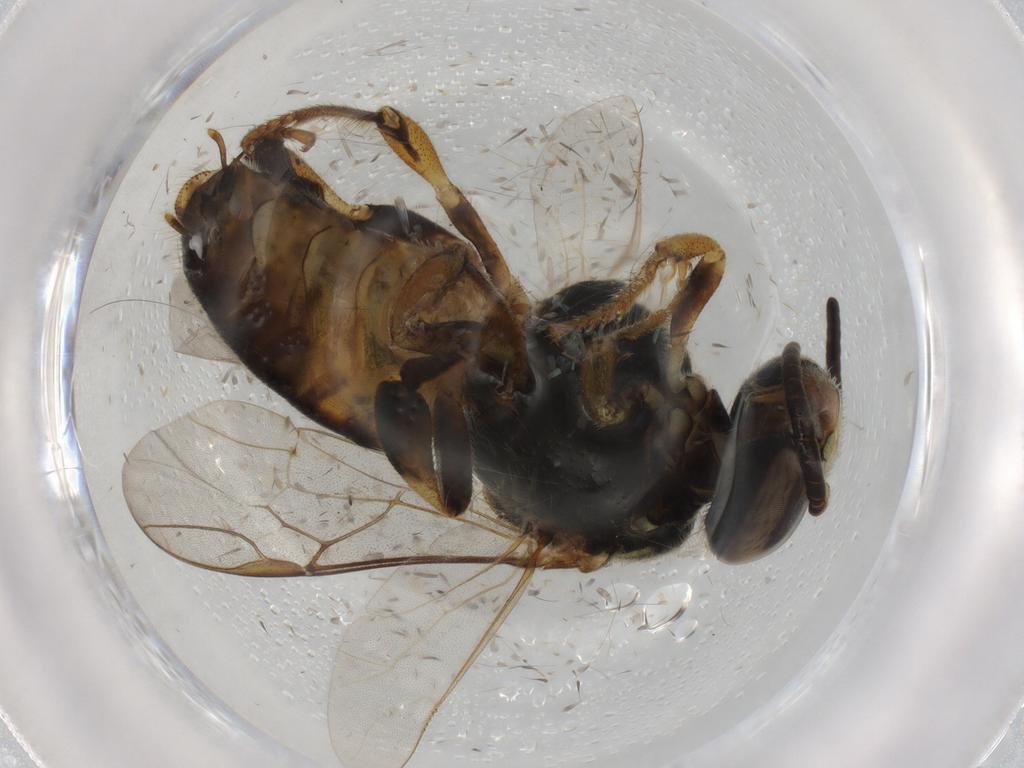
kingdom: Animalia
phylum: Arthropoda
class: Insecta
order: Hymenoptera
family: Apidae
